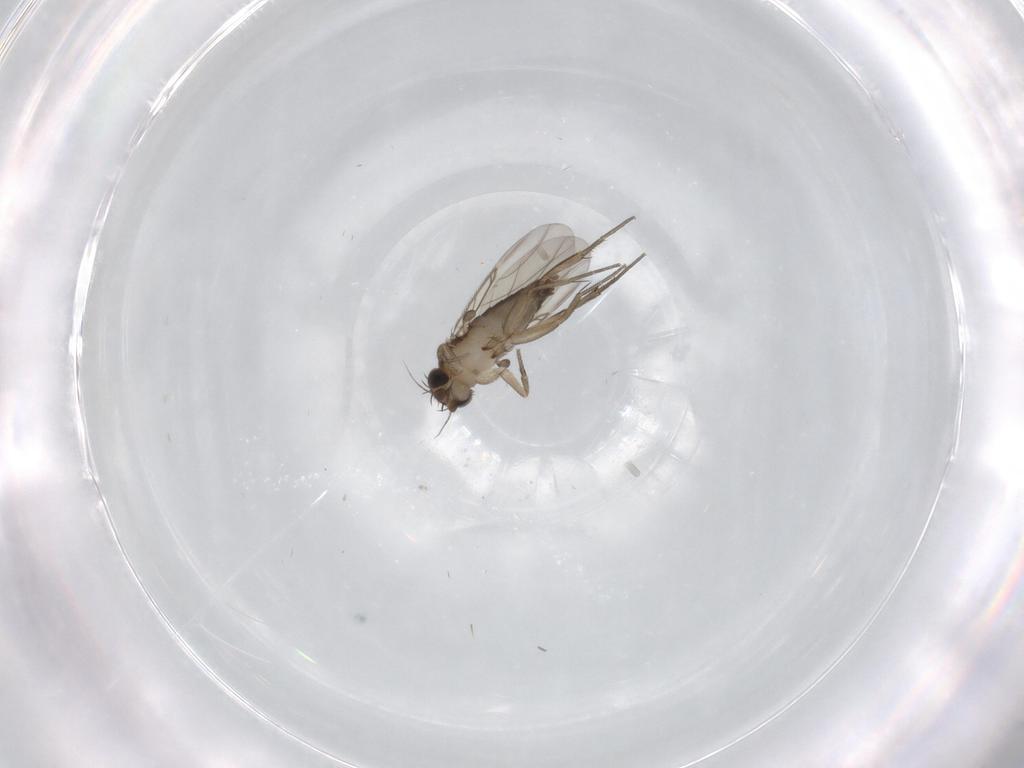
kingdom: Animalia
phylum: Arthropoda
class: Insecta
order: Diptera
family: Phoridae
